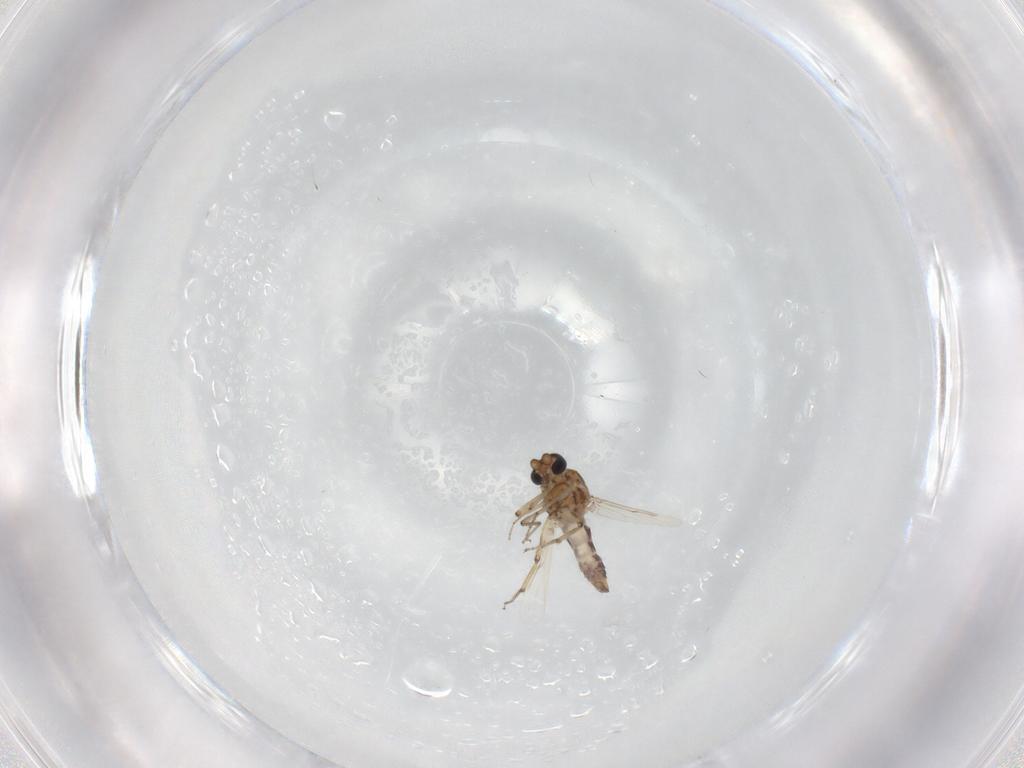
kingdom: Animalia
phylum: Arthropoda
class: Insecta
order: Diptera
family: Ceratopogonidae
